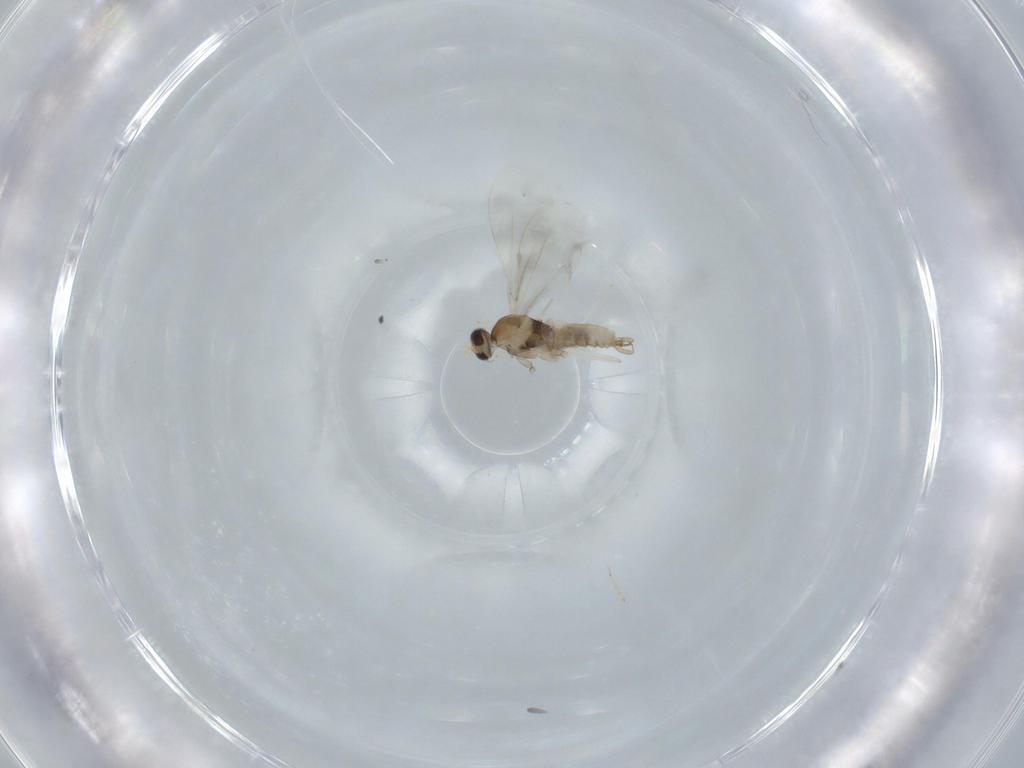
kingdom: Animalia
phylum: Arthropoda
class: Insecta
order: Diptera
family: Cecidomyiidae
